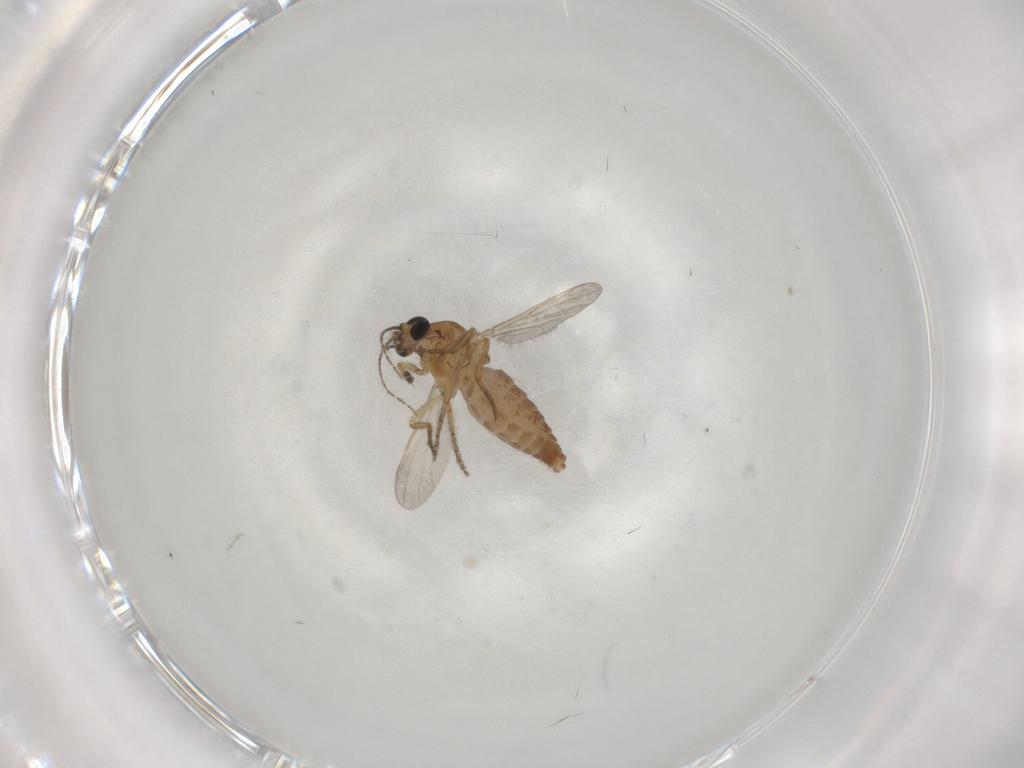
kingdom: Animalia
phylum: Arthropoda
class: Insecta
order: Diptera
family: Ceratopogonidae
